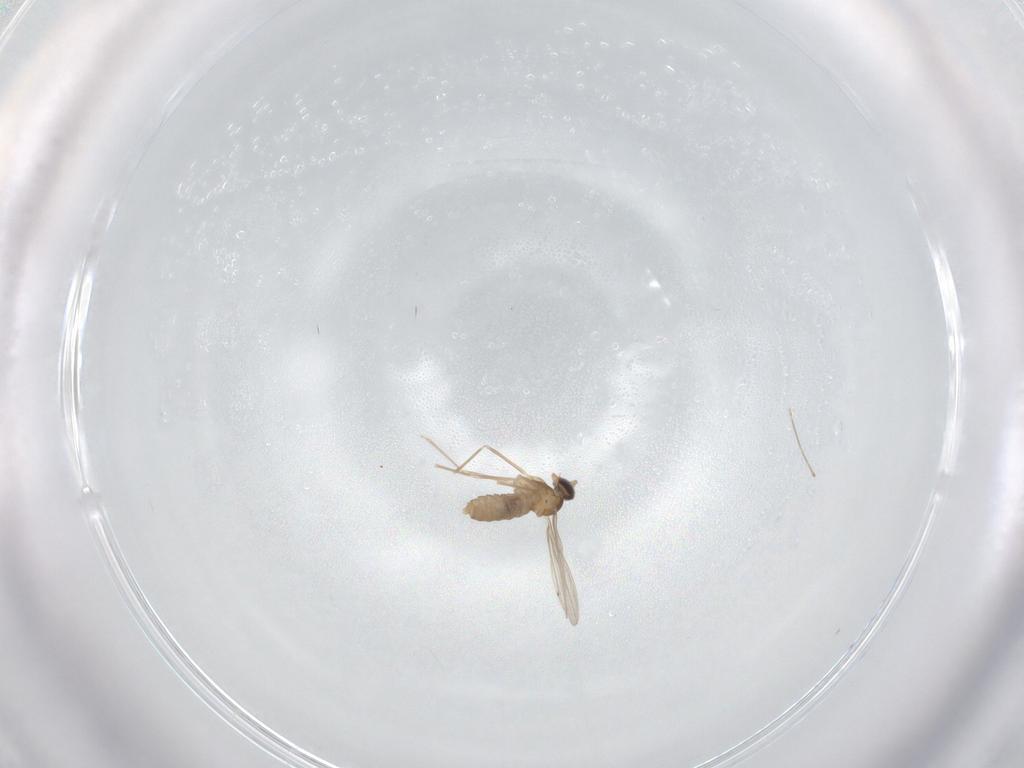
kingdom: Animalia
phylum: Arthropoda
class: Insecta
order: Diptera
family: Cecidomyiidae
